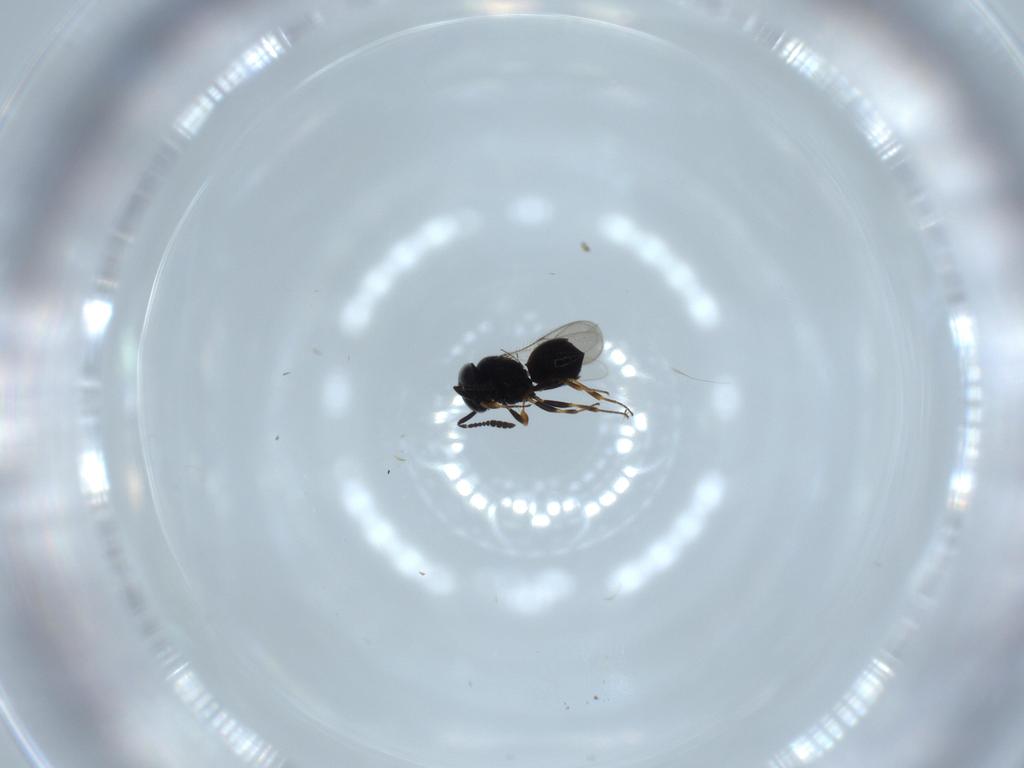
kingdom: Animalia
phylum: Arthropoda
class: Insecta
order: Hymenoptera
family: Scelionidae
